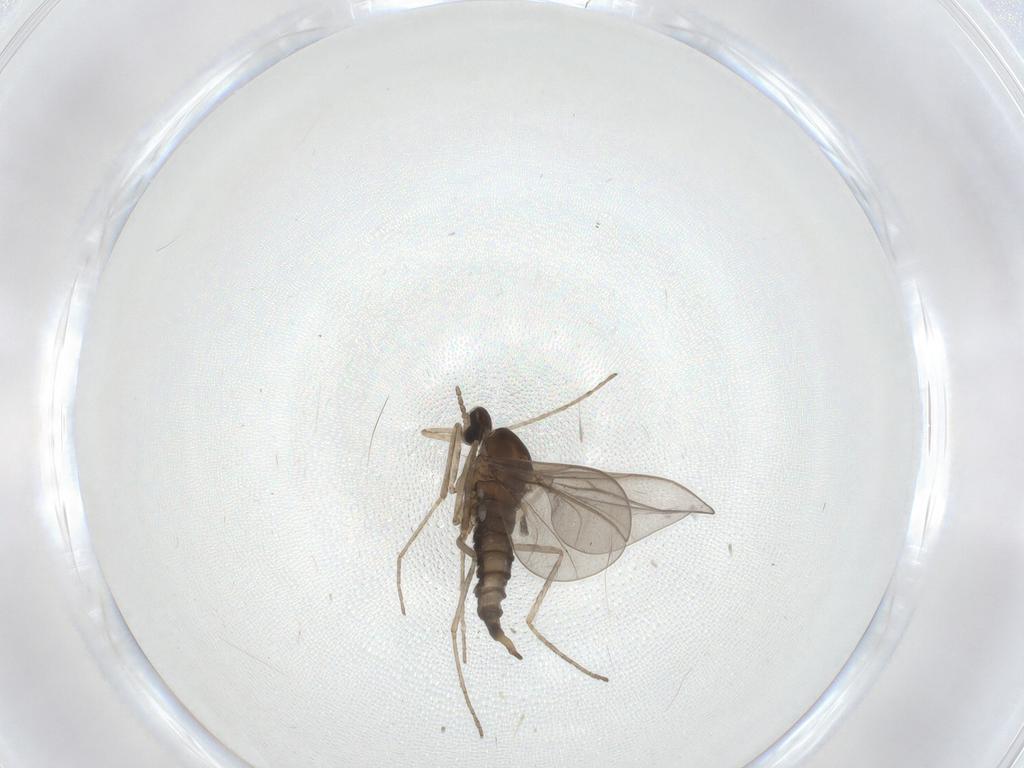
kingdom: Animalia
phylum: Arthropoda
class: Insecta
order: Diptera
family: Cecidomyiidae
